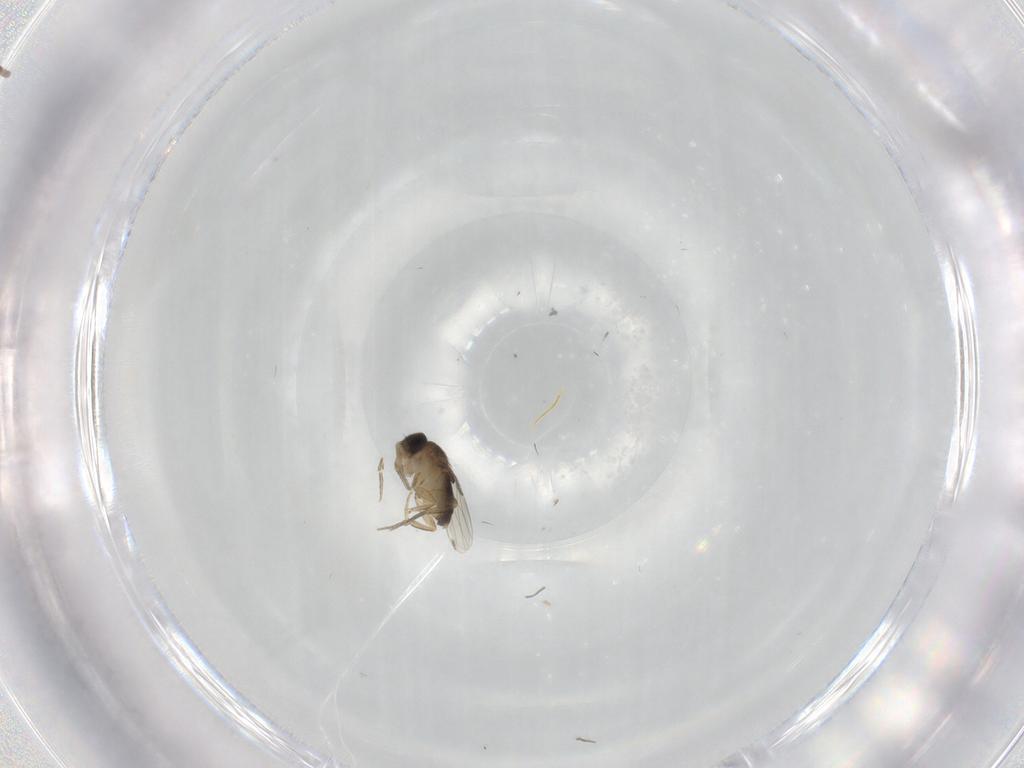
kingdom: Animalia
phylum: Arthropoda
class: Insecta
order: Diptera
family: Phoridae
